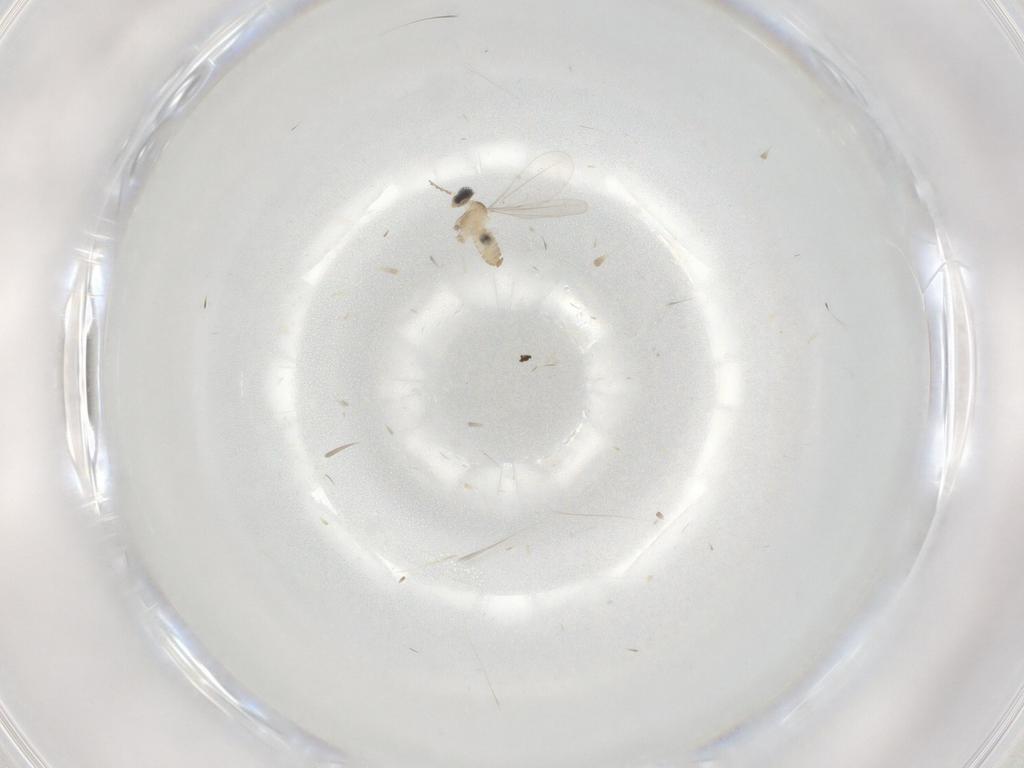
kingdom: Animalia
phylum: Arthropoda
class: Insecta
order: Diptera
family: Cecidomyiidae
